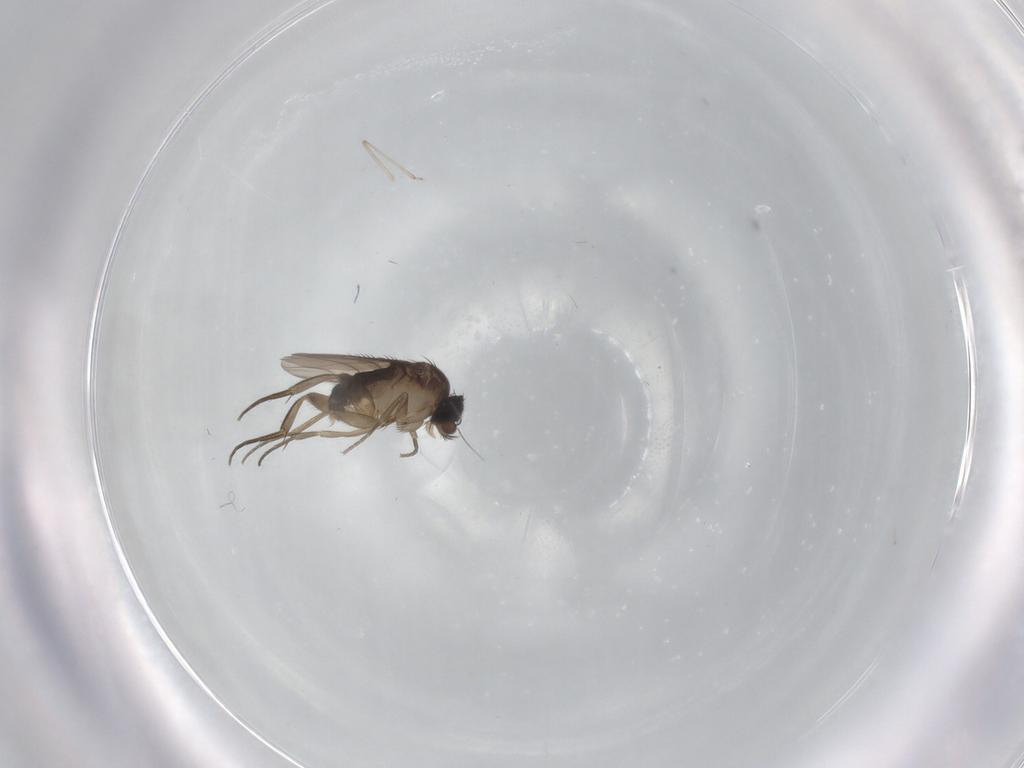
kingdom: Animalia
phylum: Arthropoda
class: Insecta
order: Diptera
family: Phoridae
